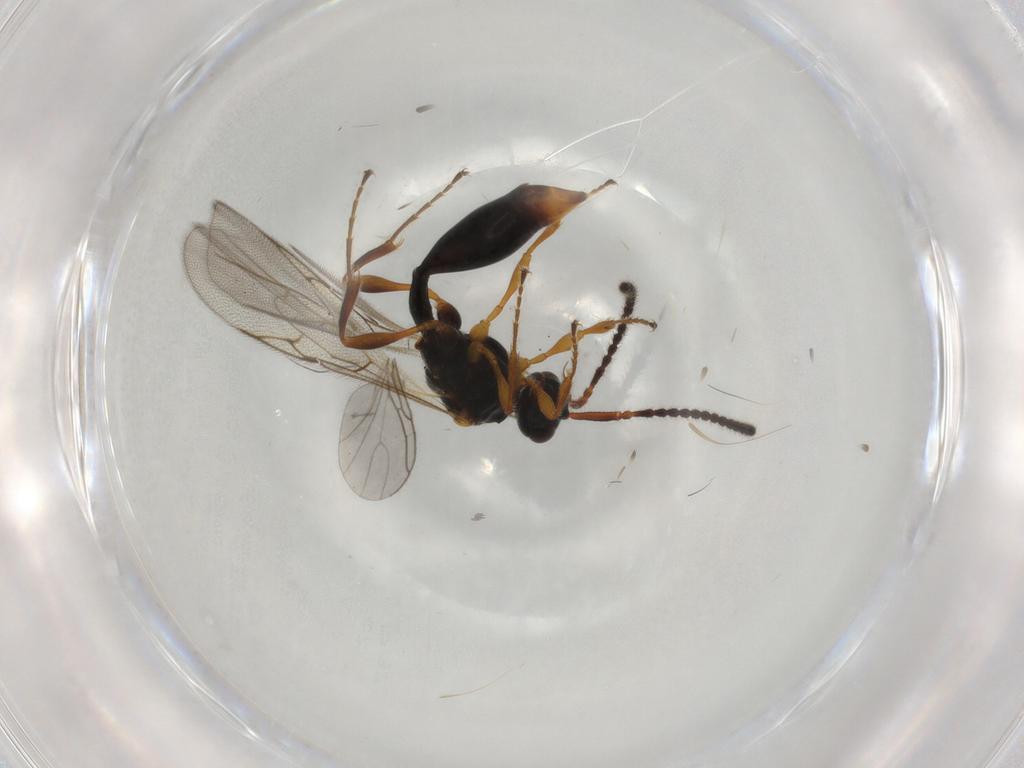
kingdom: Animalia
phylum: Arthropoda
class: Insecta
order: Hymenoptera
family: Diapriidae
